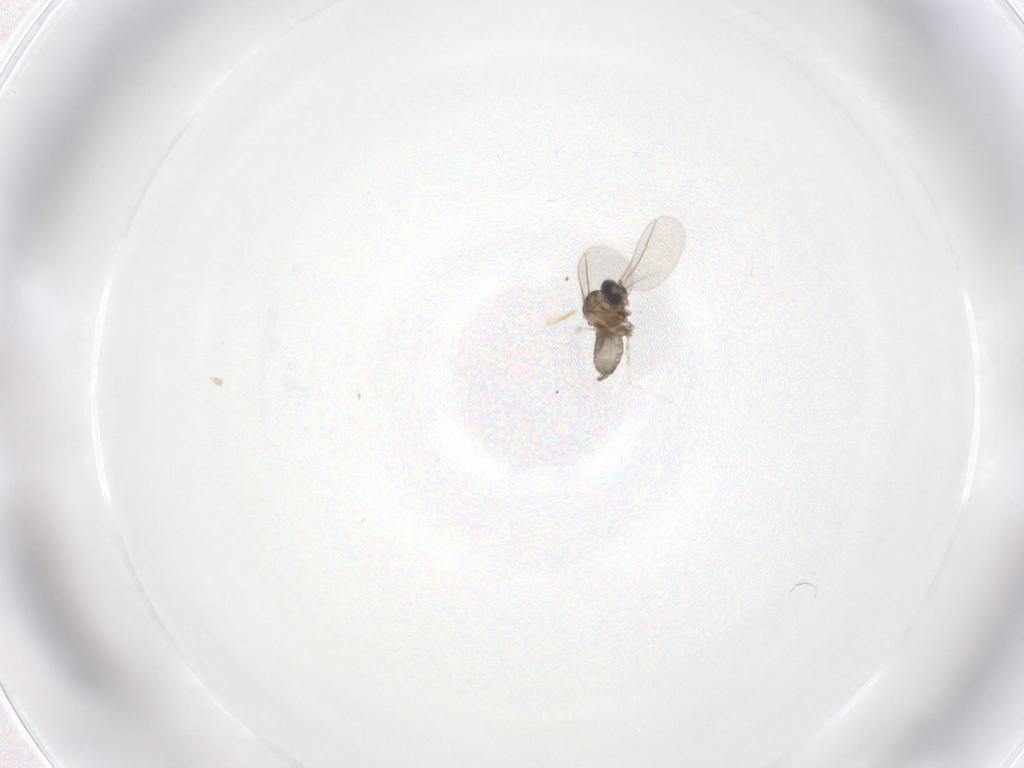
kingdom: Animalia
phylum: Arthropoda
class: Insecta
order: Diptera
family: Cecidomyiidae
